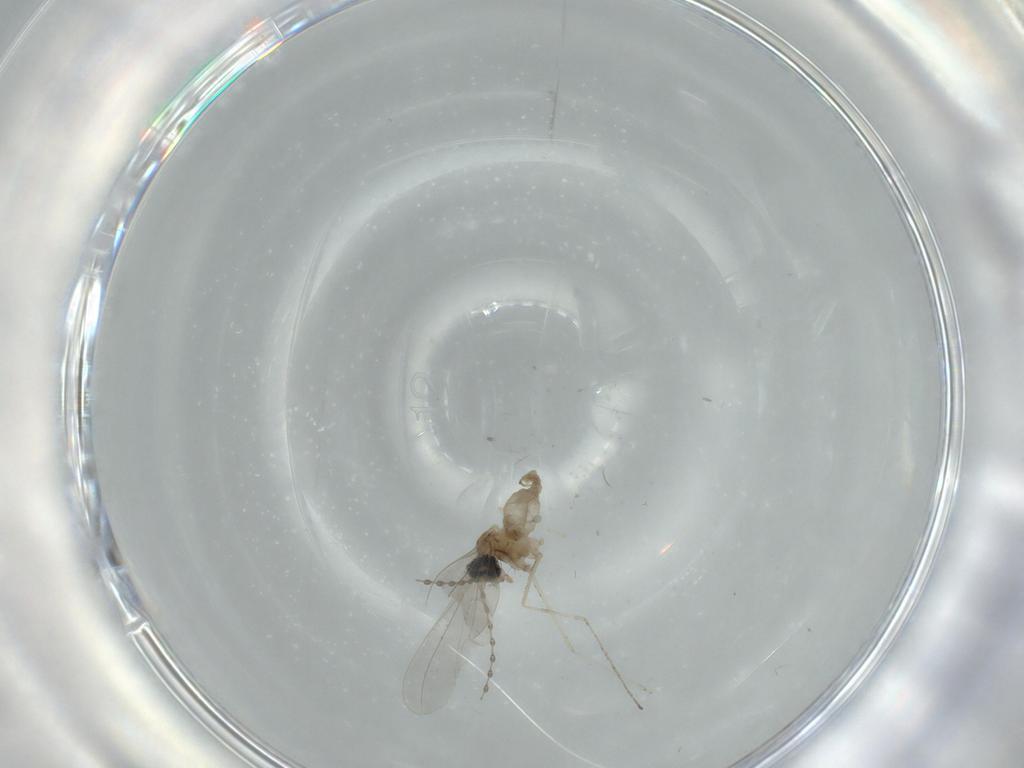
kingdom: Animalia
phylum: Arthropoda
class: Insecta
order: Diptera
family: Cecidomyiidae
